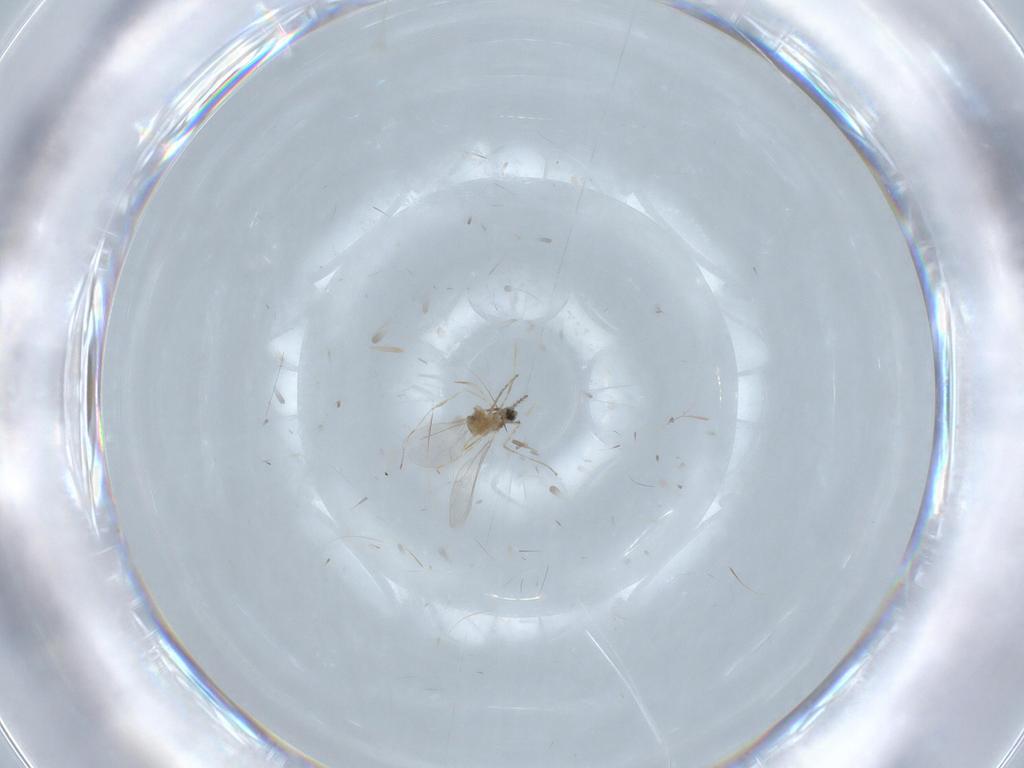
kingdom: Animalia
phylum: Arthropoda
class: Insecta
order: Diptera
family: Cecidomyiidae
